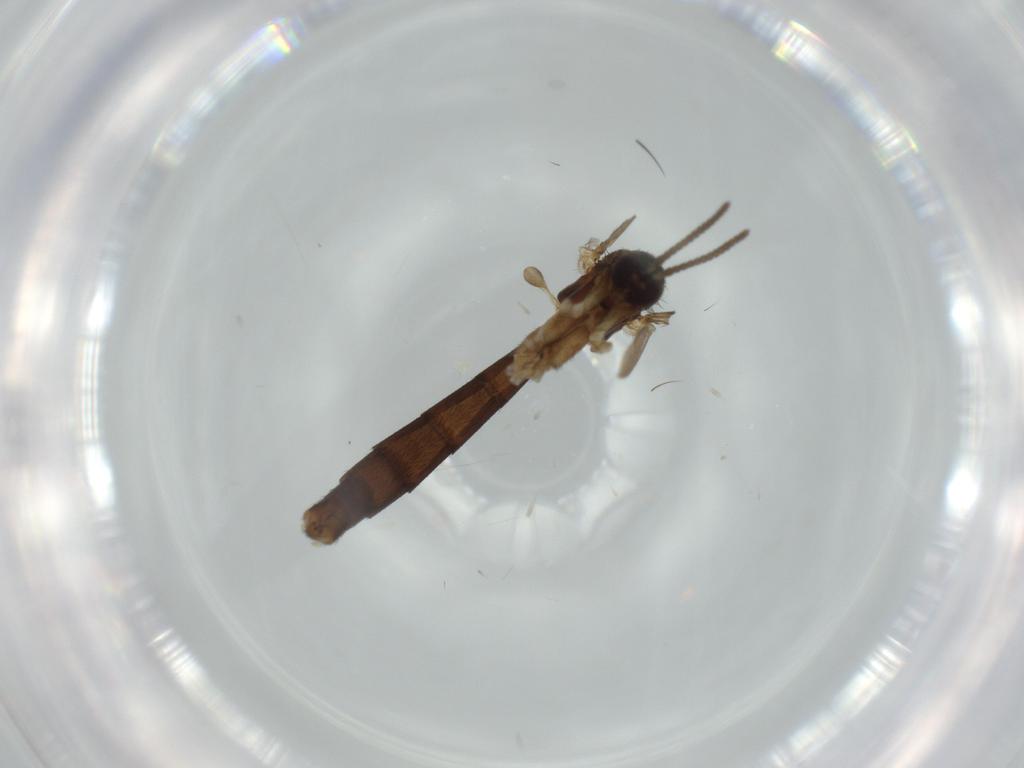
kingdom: Animalia
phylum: Arthropoda
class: Insecta
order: Diptera
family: Keroplatidae
